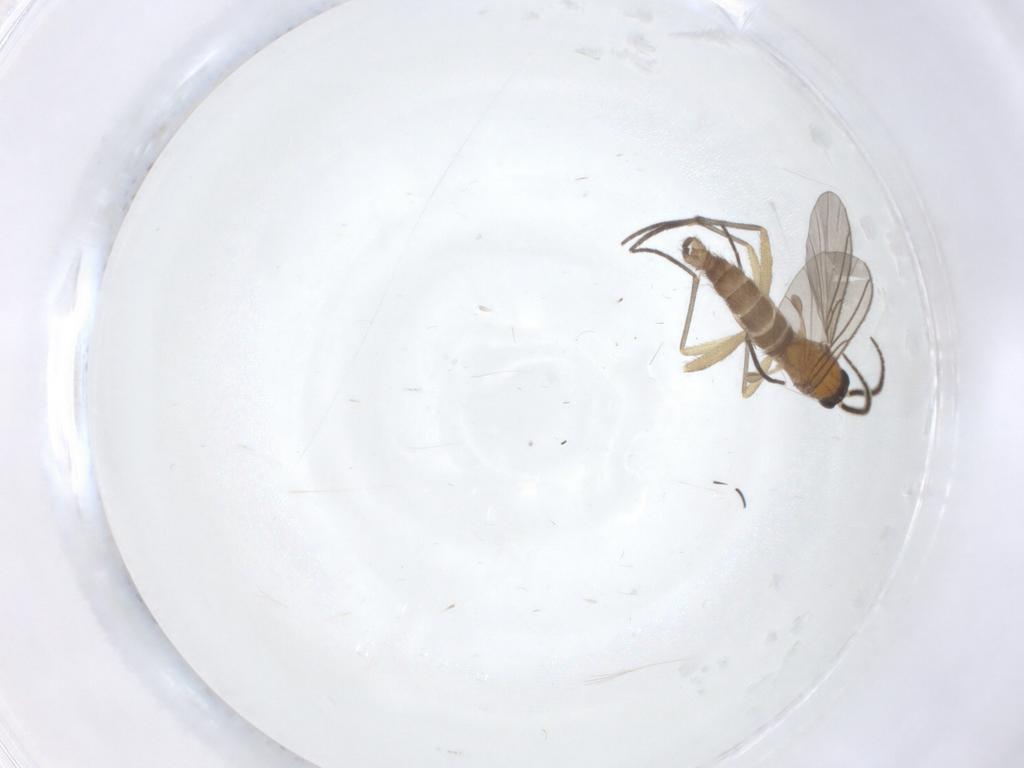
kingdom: Animalia
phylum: Arthropoda
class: Insecta
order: Diptera
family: Sciaridae
